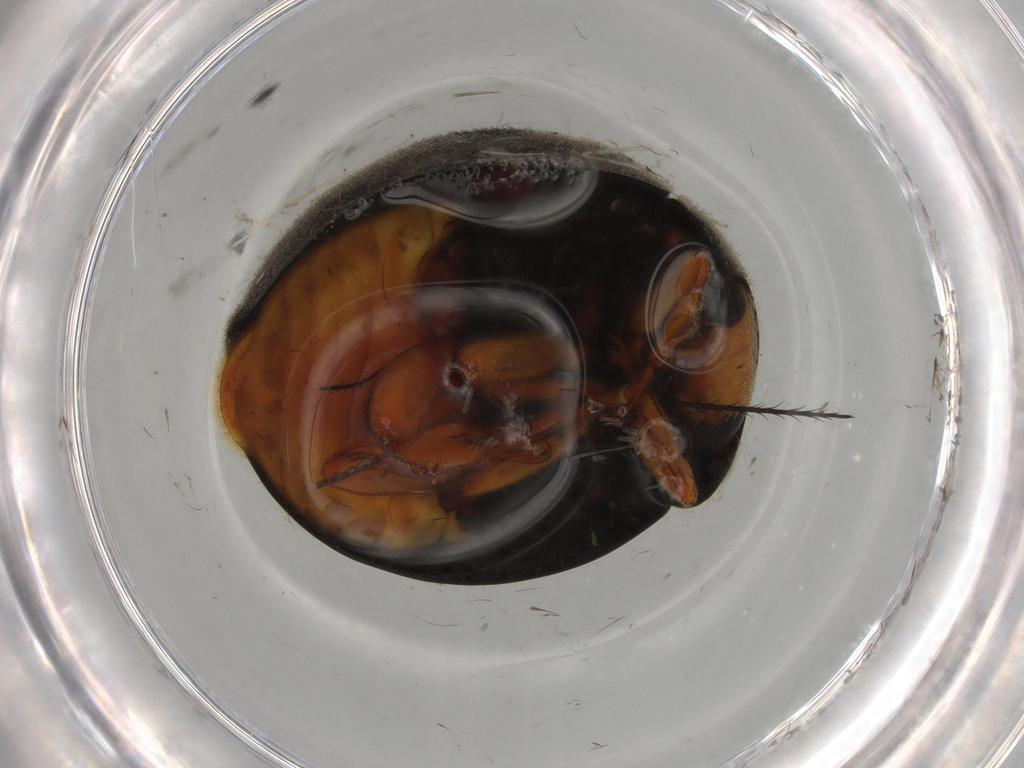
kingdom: Animalia
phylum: Arthropoda
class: Insecta
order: Coleoptera
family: Coccinellidae
